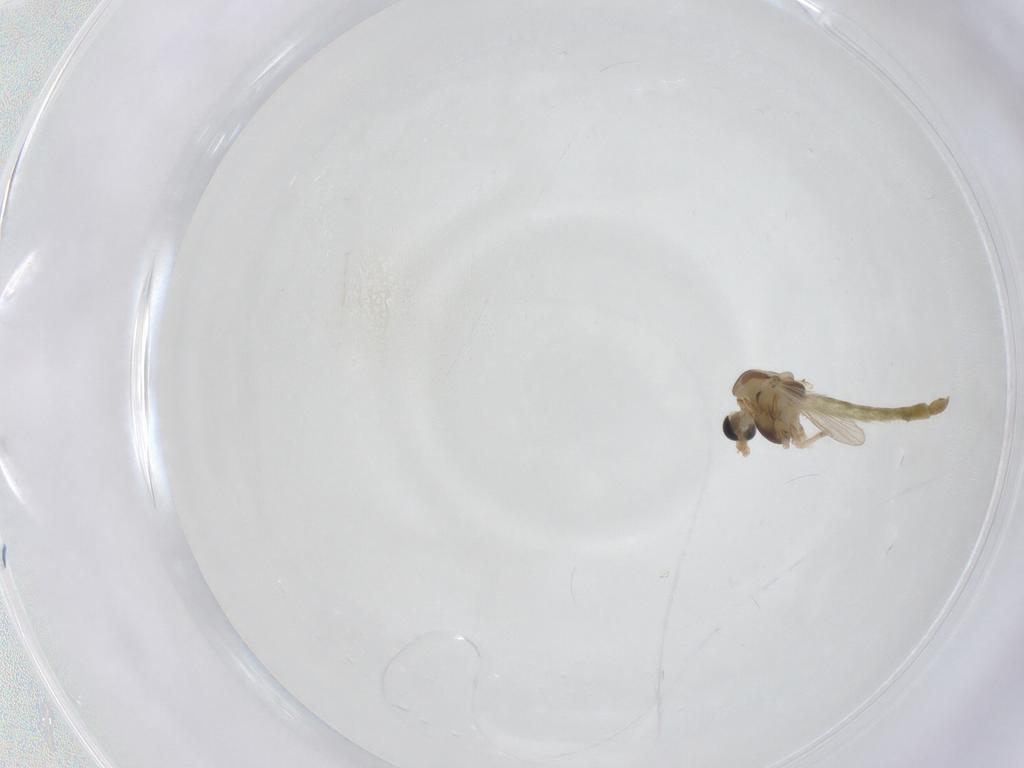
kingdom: Animalia
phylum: Arthropoda
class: Insecta
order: Diptera
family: Chironomidae
